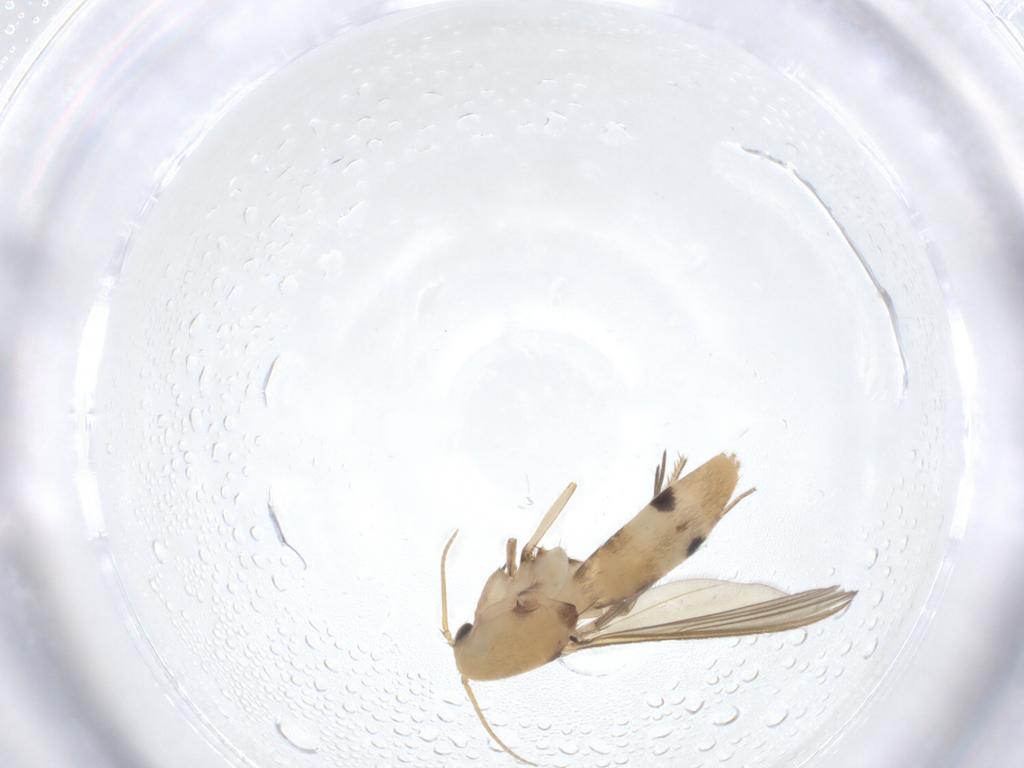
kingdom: Animalia
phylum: Arthropoda
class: Insecta
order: Diptera
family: Mycetophilidae
